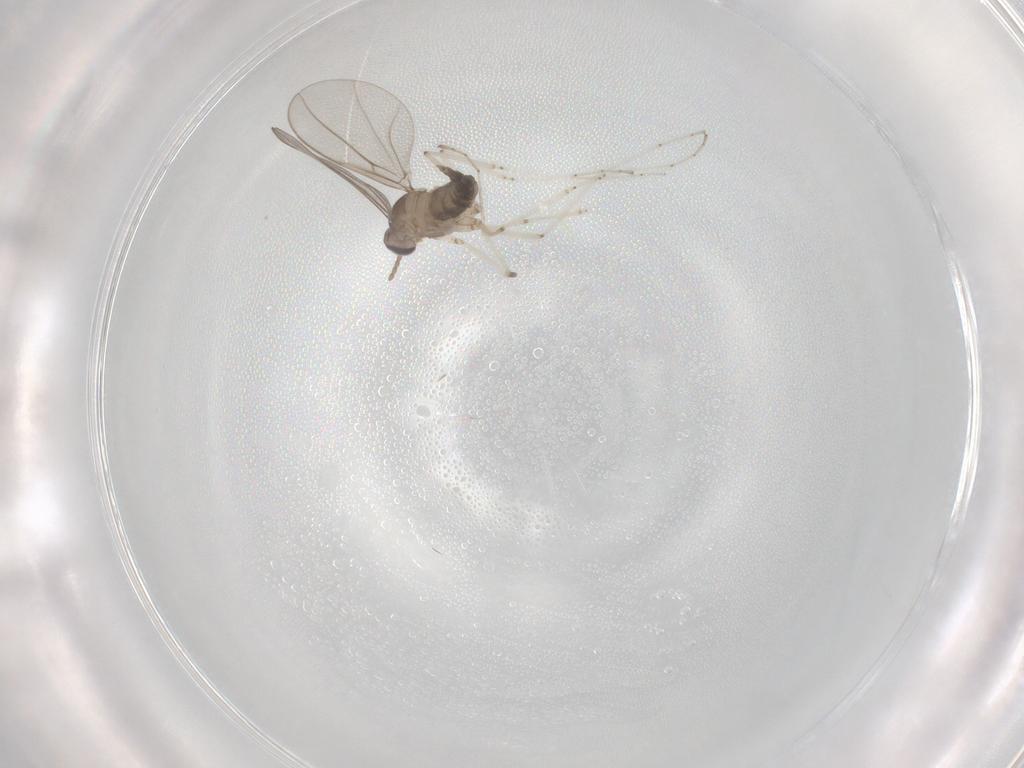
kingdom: Animalia
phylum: Arthropoda
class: Insecta
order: Diptera
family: Cecidomyiidae
